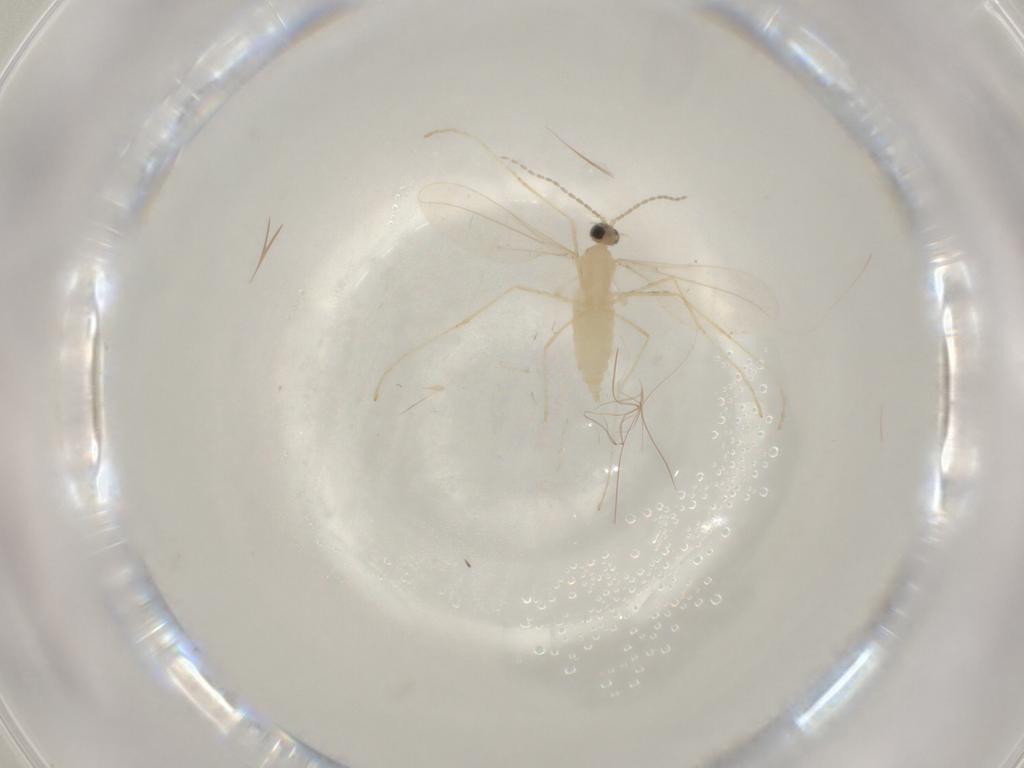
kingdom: Animalia
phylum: Arthropoda
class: Insecta
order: Diptera
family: Cecidomyiidae
